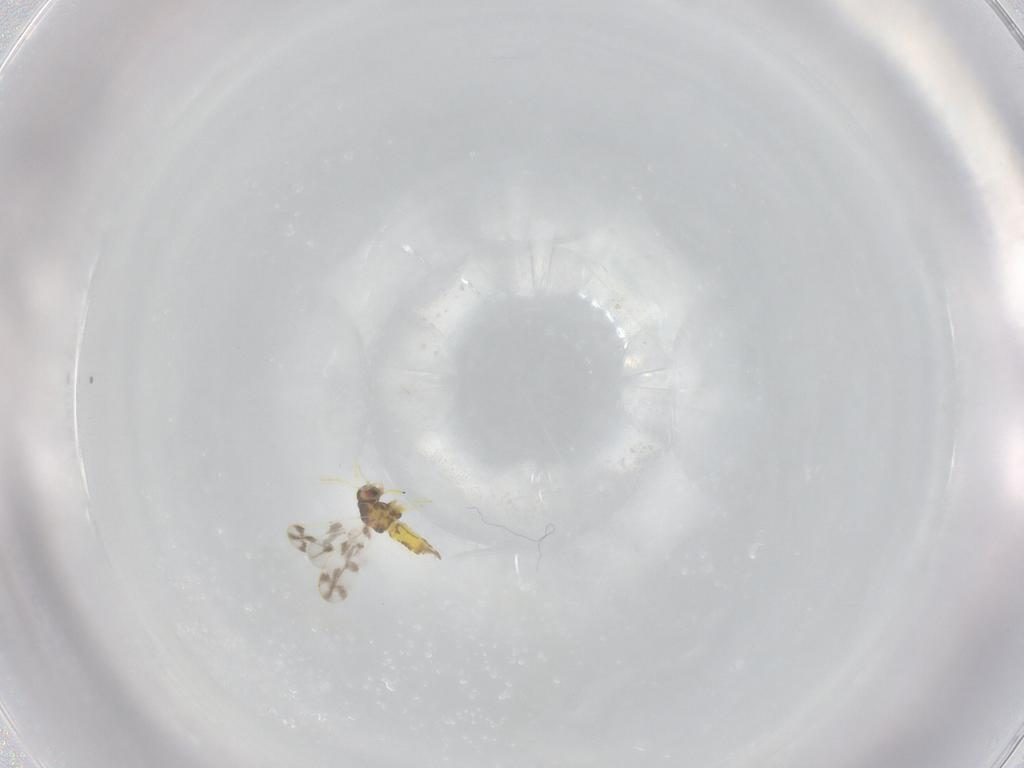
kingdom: Animalia
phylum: Arthropoda
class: Insecta
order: Hemiptera
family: Aleyrodidae
